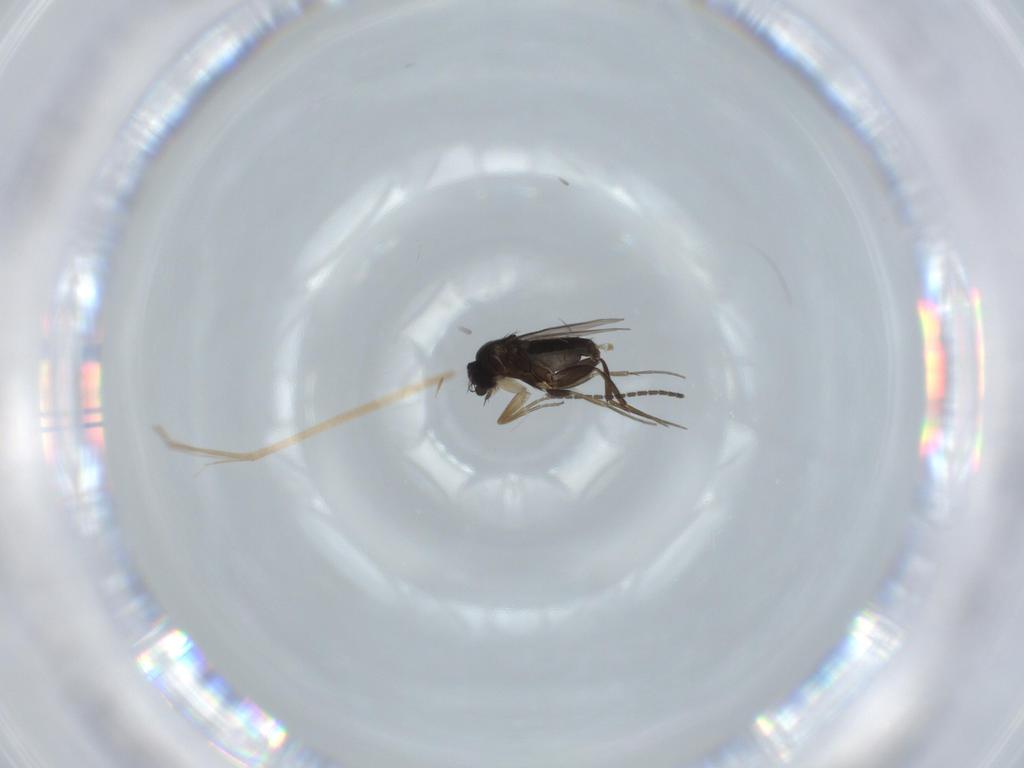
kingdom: Animalia
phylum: Arthropoda
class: Insecta
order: Diptera
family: Phoridae
